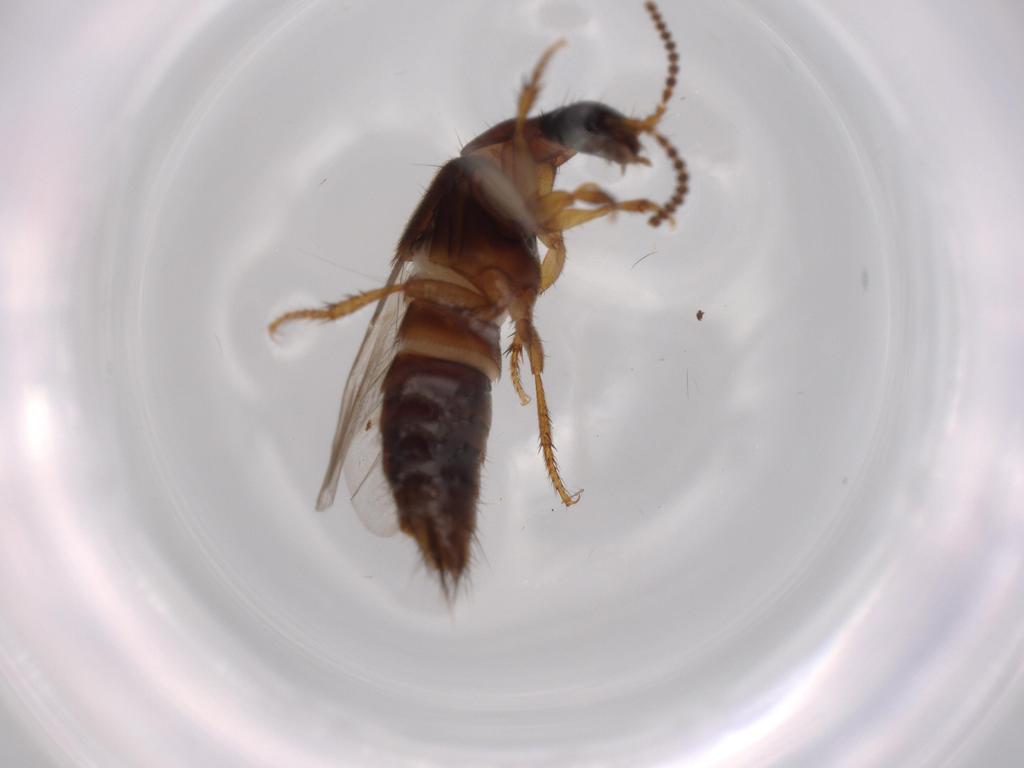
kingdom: Animalia
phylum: Arthropoda
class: Insecta
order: Coleoptera
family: Staphylinidae
